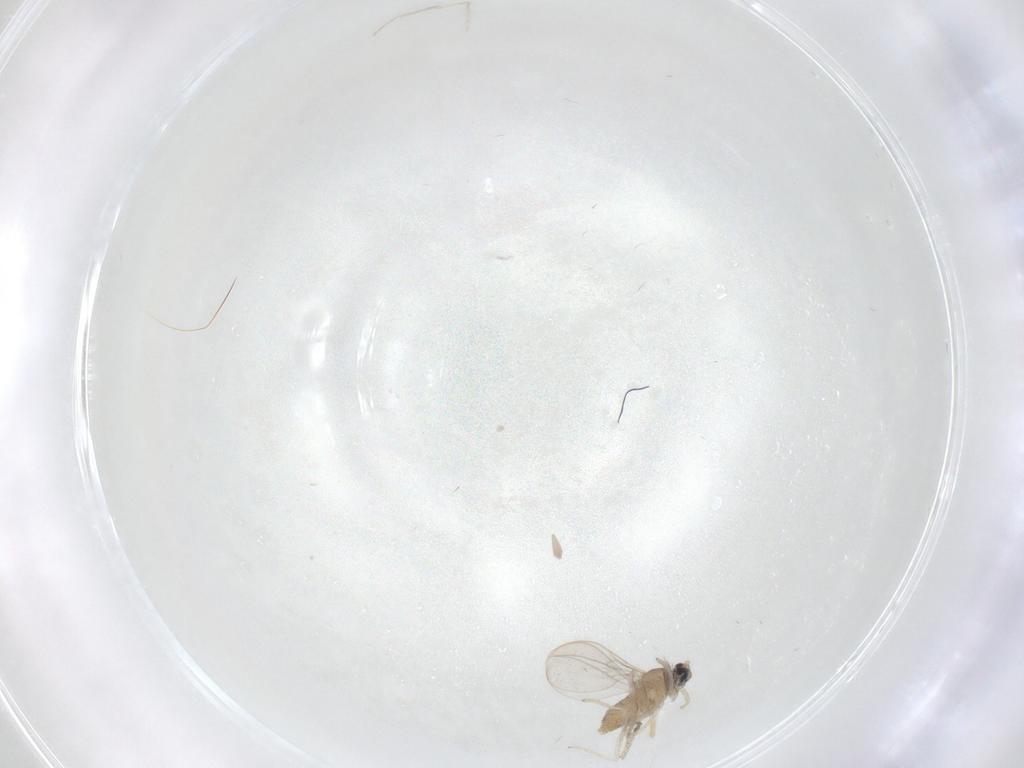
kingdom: Animalia
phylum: Arthropoda
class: Insecta
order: Diptera
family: Cecidomyiidae
